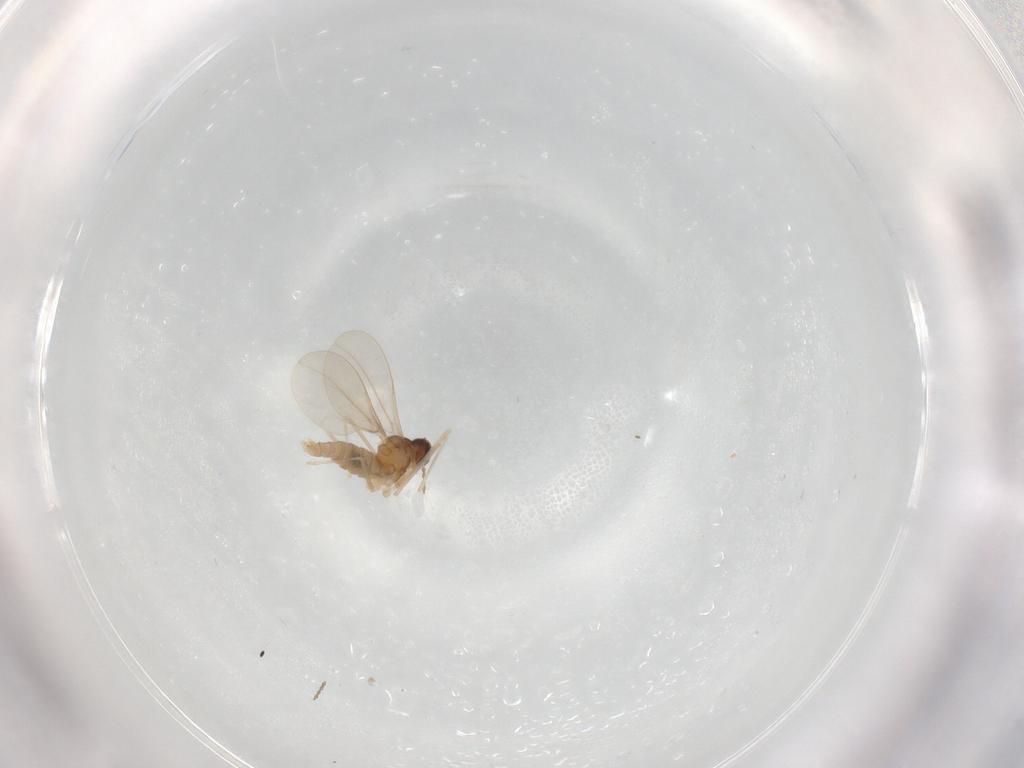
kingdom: Animalia
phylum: Arthropoda
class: Insecta
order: Diptera
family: Cecidomyiidae
